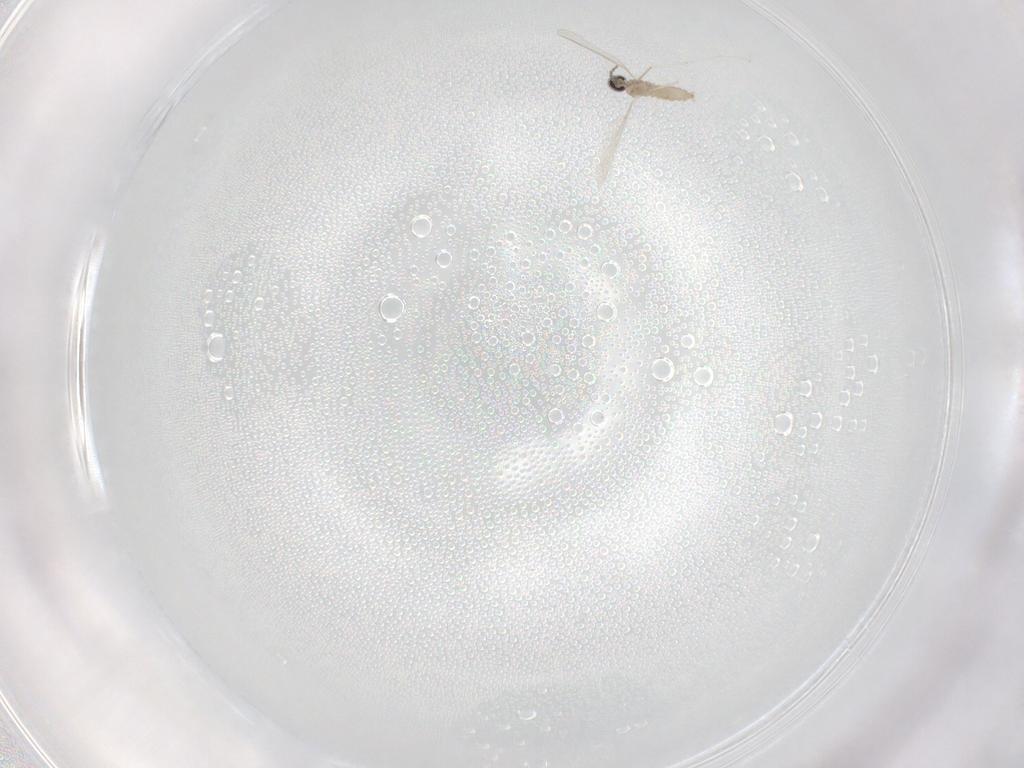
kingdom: Animalia
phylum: Arthropoda
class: Insecta
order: Diptera
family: Cecidomyiidae
